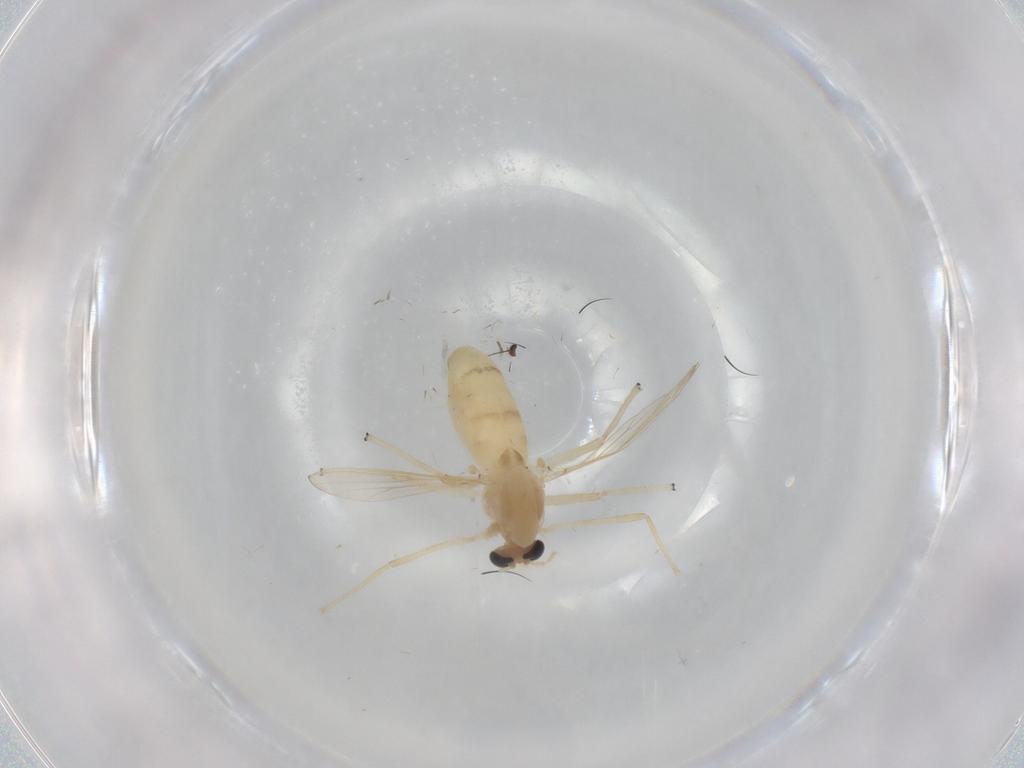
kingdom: Animalia
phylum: Arthropoda
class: Insecta
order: Diptera
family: Chironomidae
